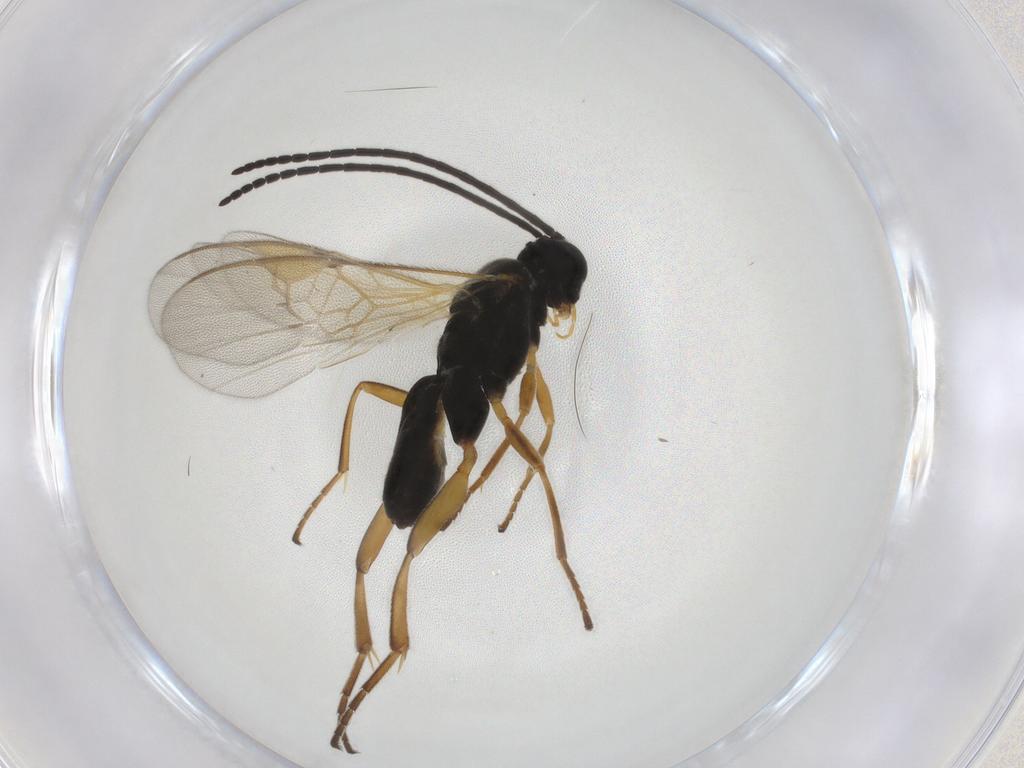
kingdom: Animalia
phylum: Arthropoda
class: Insecta
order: Hymenoptera
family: Braconidae
